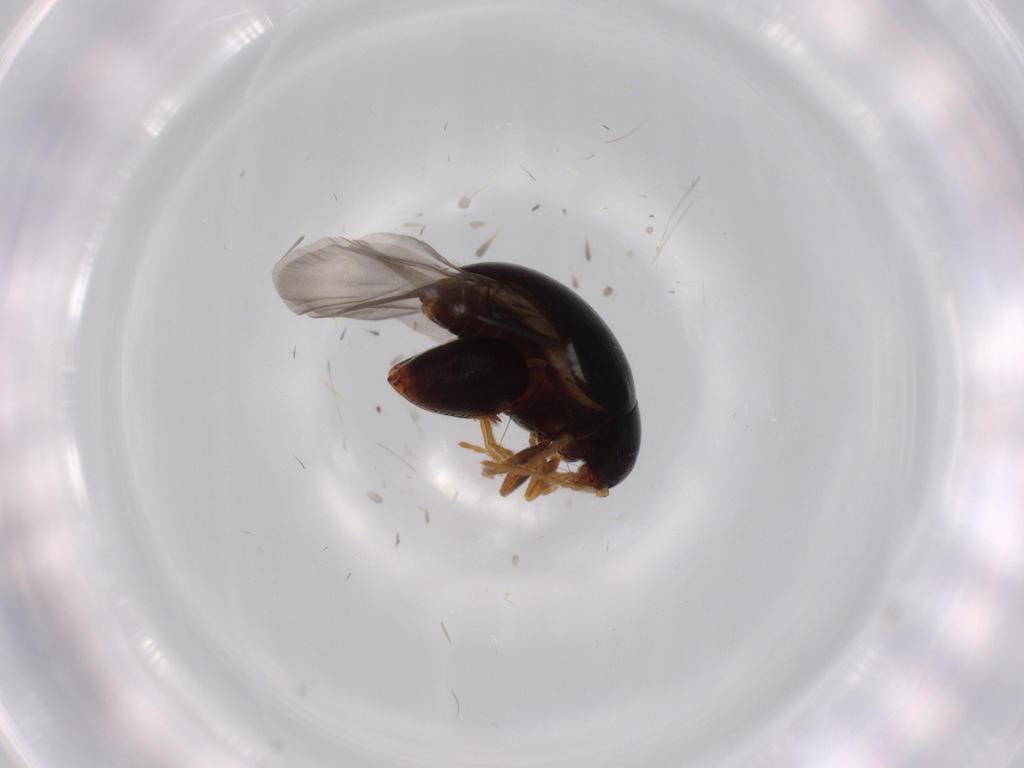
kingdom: Animalia
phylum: Arthropoda
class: Insecta
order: Coleoptera
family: Chrysomelidae
